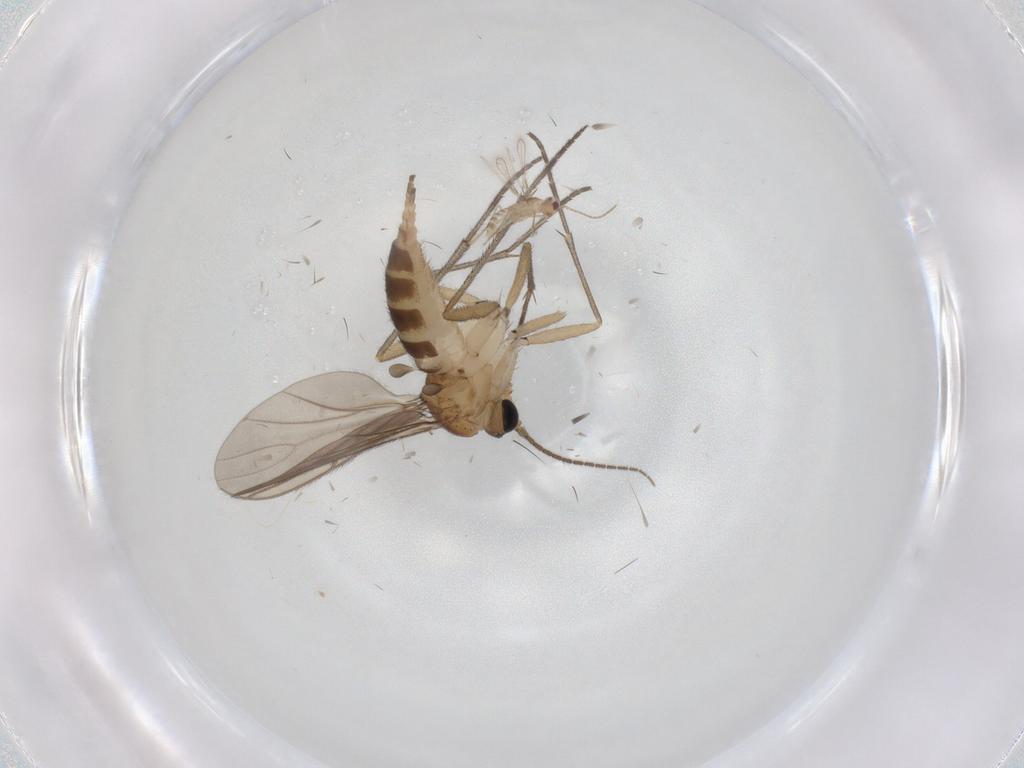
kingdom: Animalia
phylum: Arthropoda
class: Insecta
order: Diptera
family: Sciaridae
